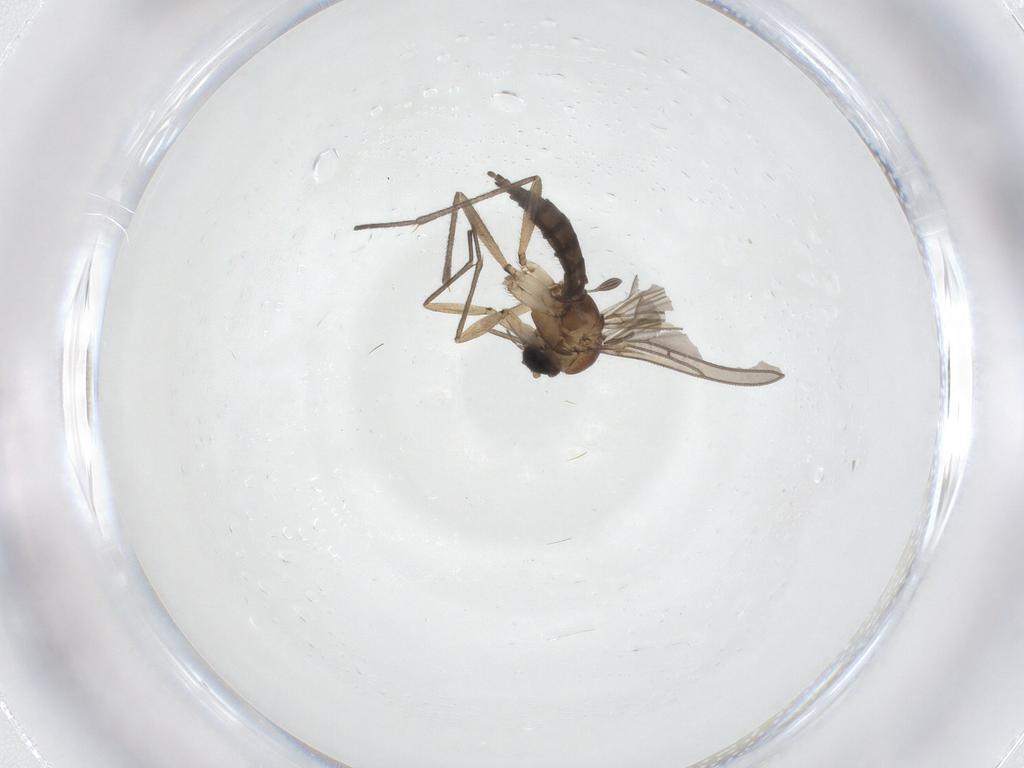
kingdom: Animalia
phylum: Arthropoda
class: Insecta
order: Diptera
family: Sciaridae
